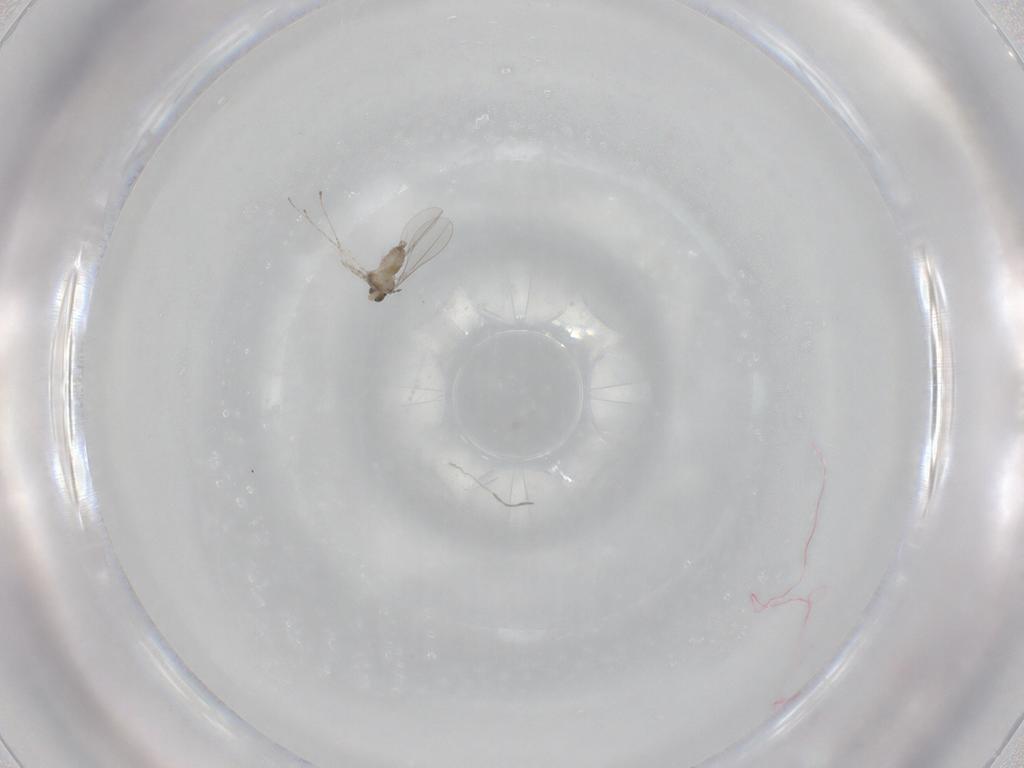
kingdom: Animalia
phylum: Arthropoda
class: Insecta
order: Diptera
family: Cecidomyiidae
